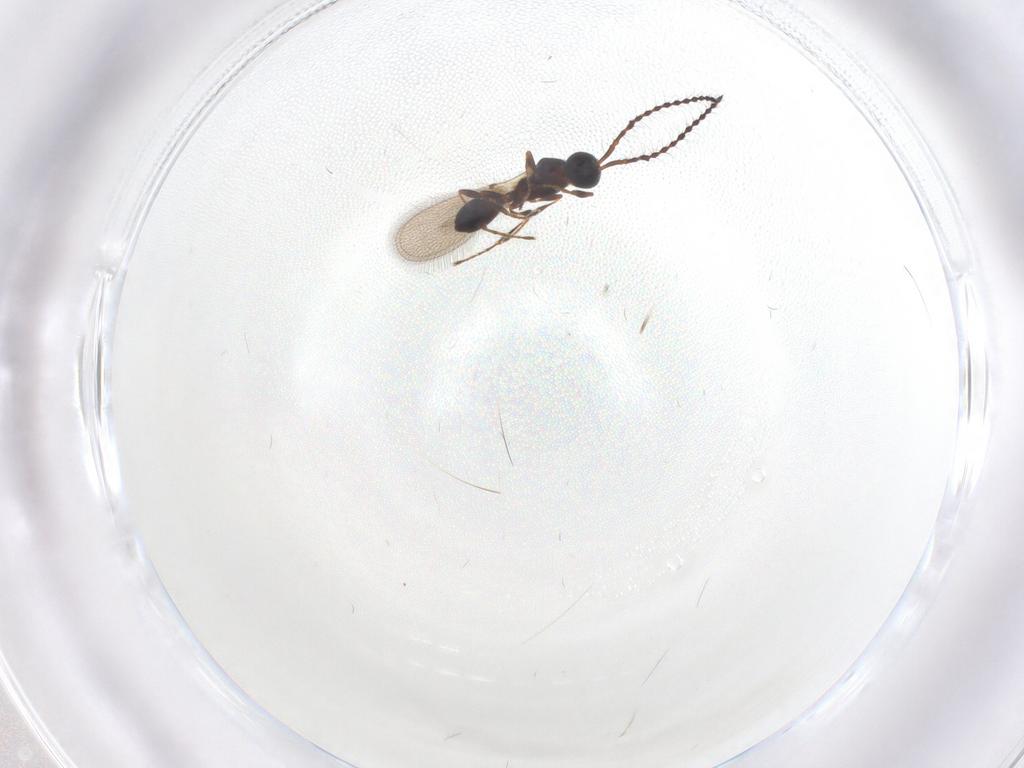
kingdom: Animalia
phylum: Arthropoda
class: Insecta
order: Hymenoptera
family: Diapriidae
